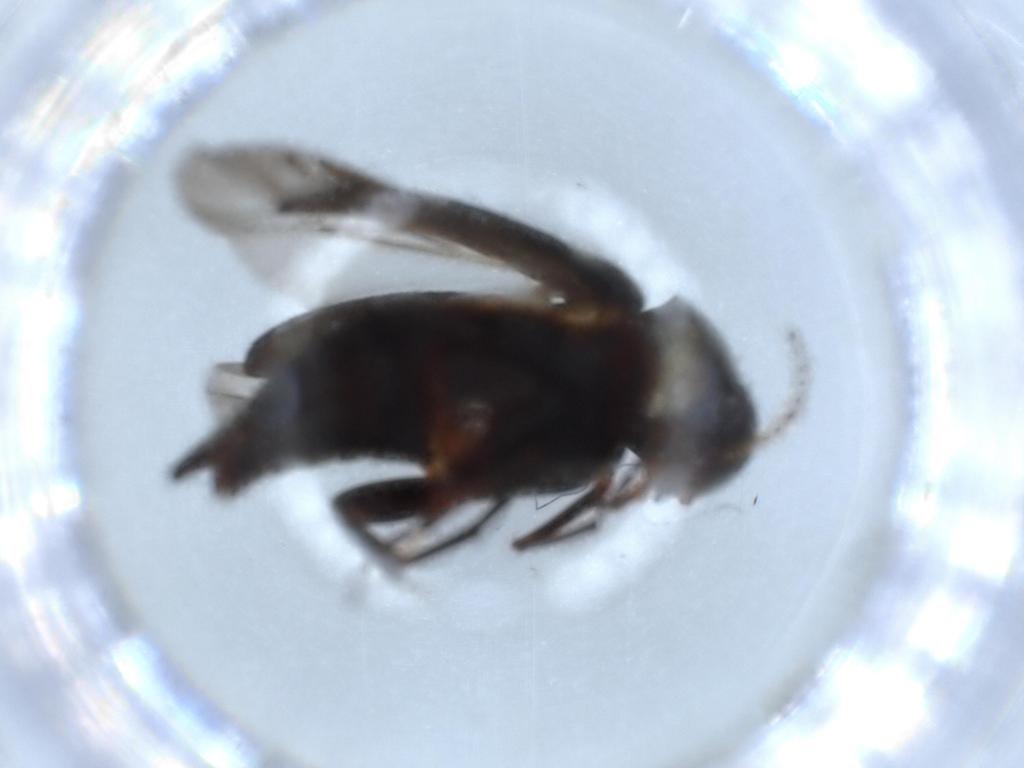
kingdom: Animalia
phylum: Arthropoda
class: Insecta
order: Coleoptera
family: Mordellidae
